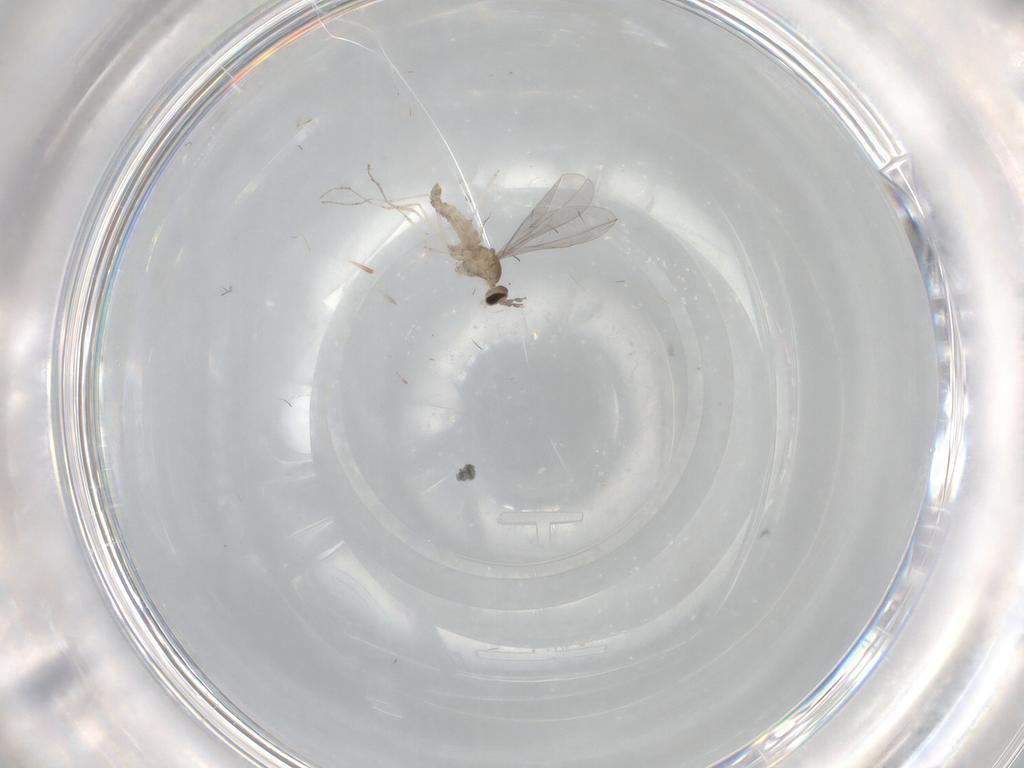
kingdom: Animalia
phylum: Arthropoda
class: Insecta
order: Diptera
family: Cecidomyiidae
